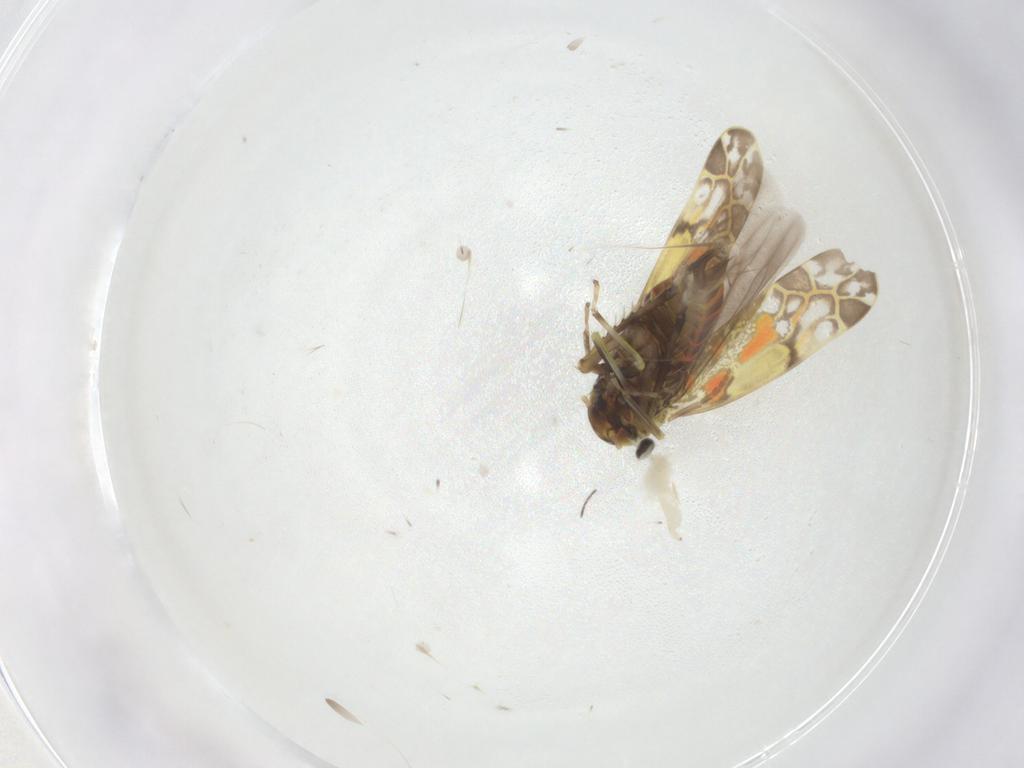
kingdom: Animalia
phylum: Arthropoda
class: Insecta
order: Hemiptera
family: Cicadellidae
